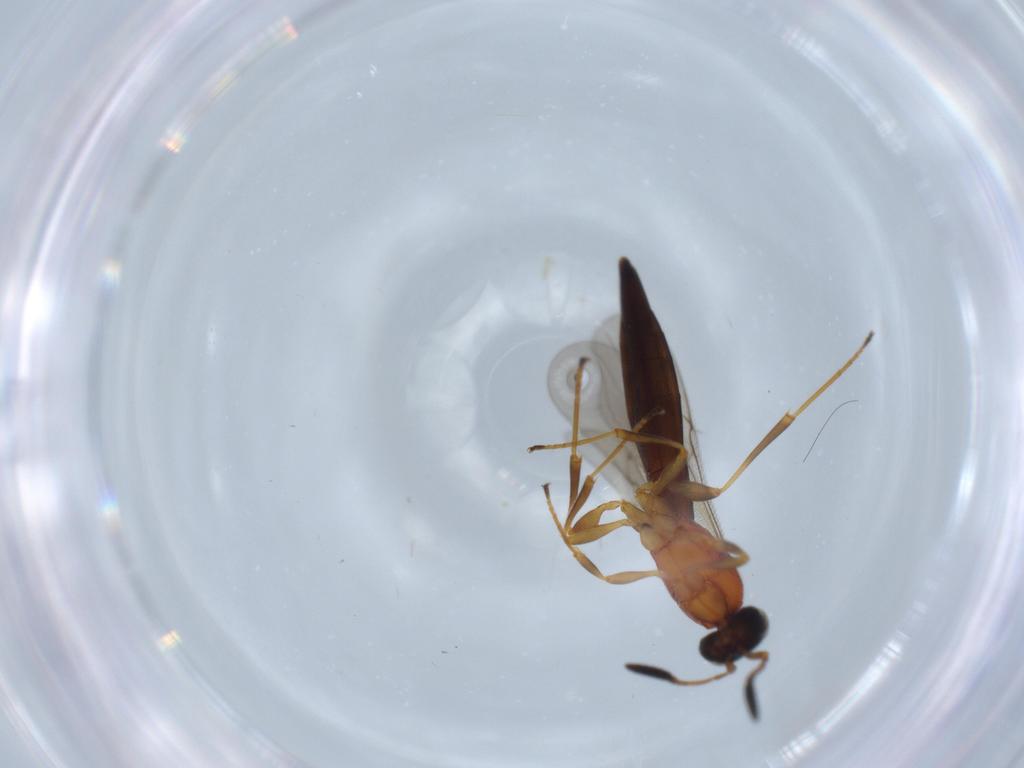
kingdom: Animalia
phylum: Arthropoda
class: Insecta
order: Hymenoptera
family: Scelionidae
